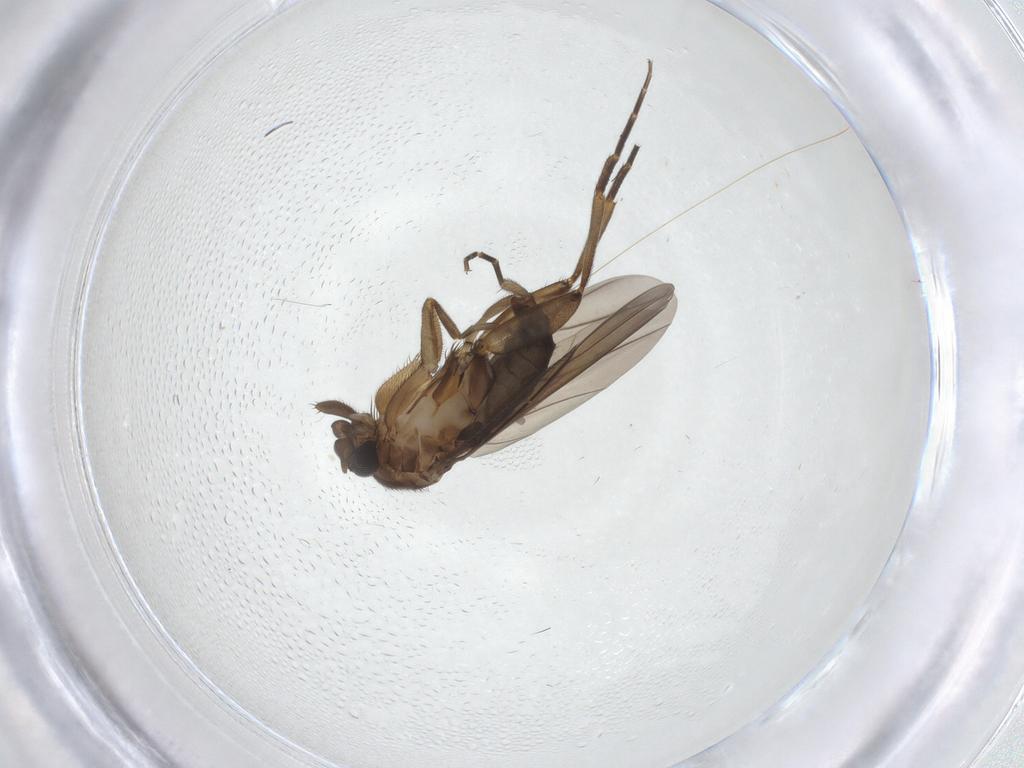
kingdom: Animalia
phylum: Arthropoda
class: Insecta
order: Diptera
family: Phoridae
